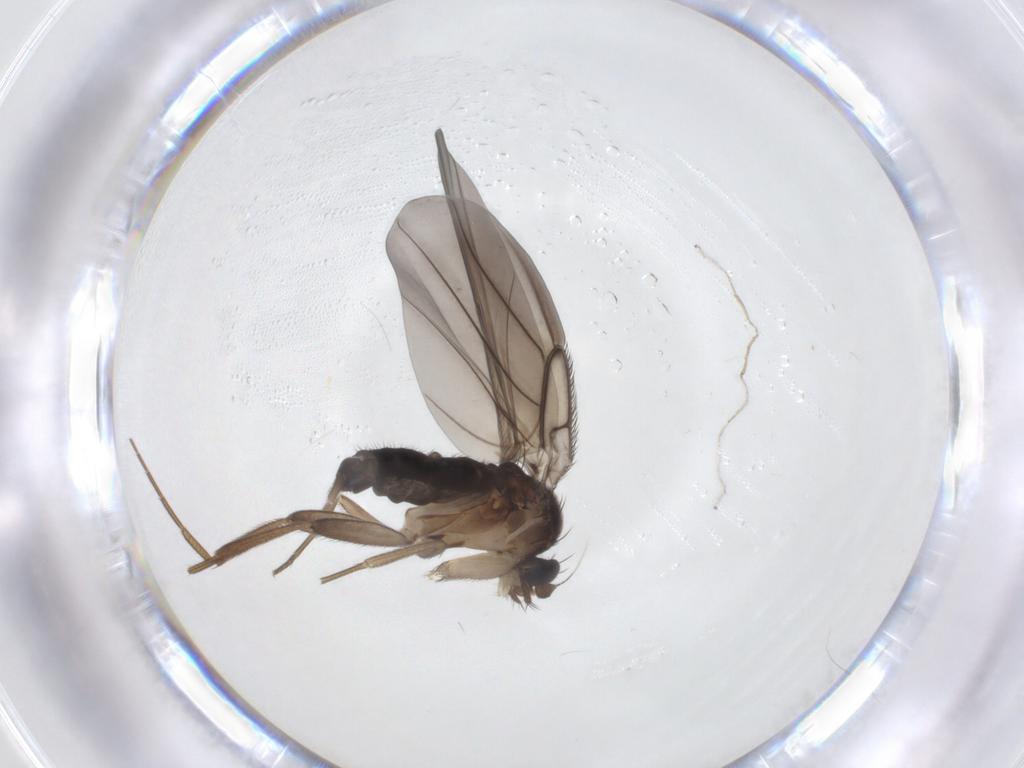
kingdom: Animalia
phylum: Arthropoda
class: Insecta
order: Diptera
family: Phoridae
